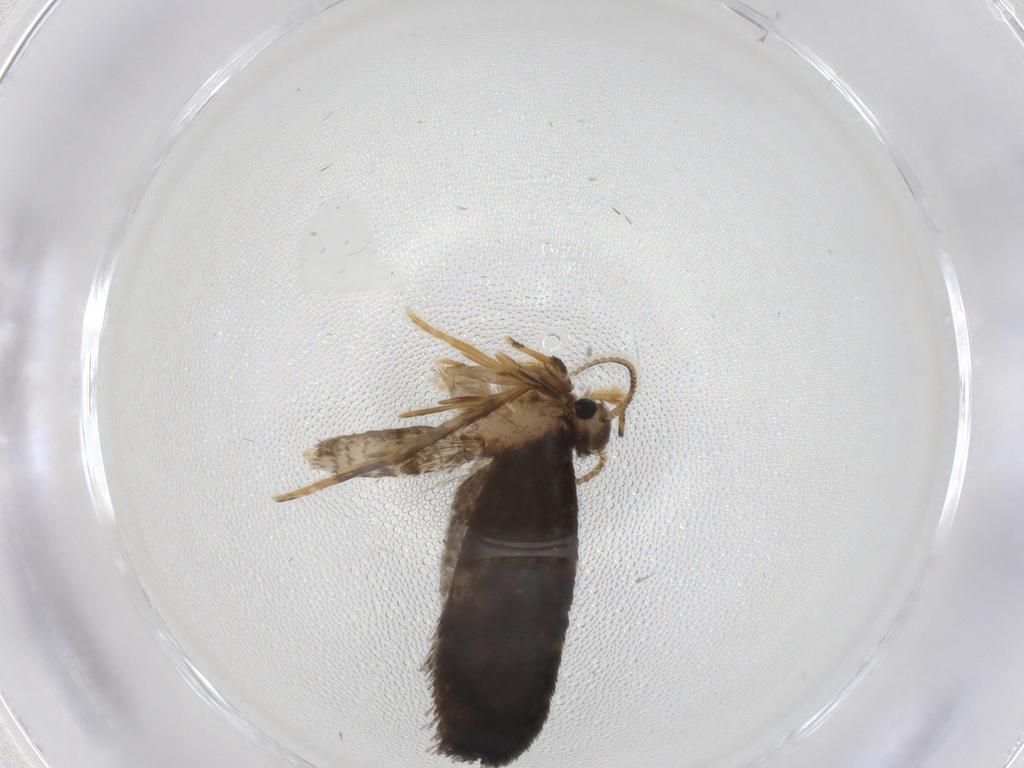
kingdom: Animalia
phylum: Arthropoda
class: Insecta
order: Lepidoptera
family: Psychidae
